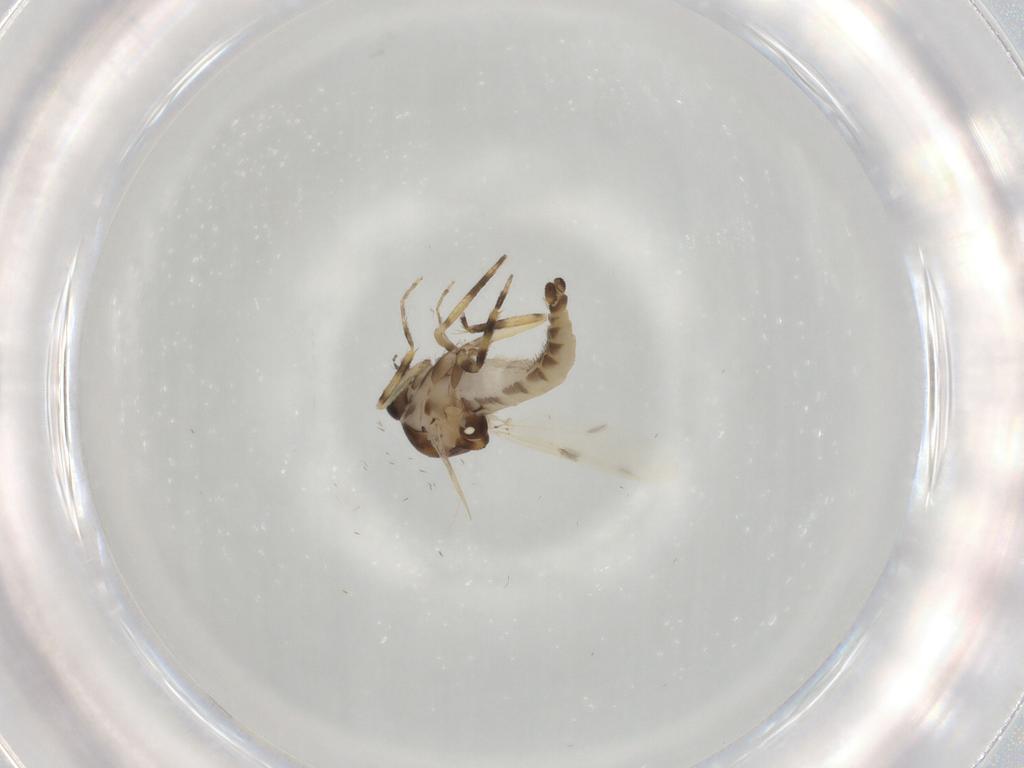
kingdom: Animalia
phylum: Arthropoda
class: Insecta
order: Diptera
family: Ceratopogonidae
